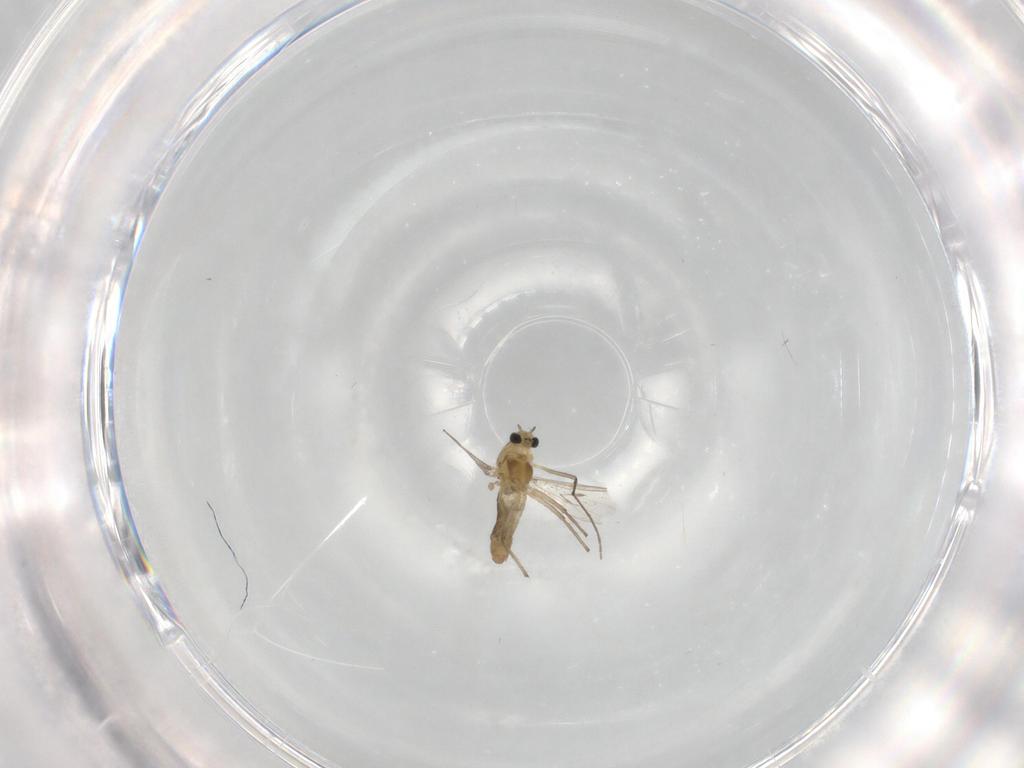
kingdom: Animalia
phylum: Arthropoda
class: Insecta
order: Diptera
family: Chironomidae
